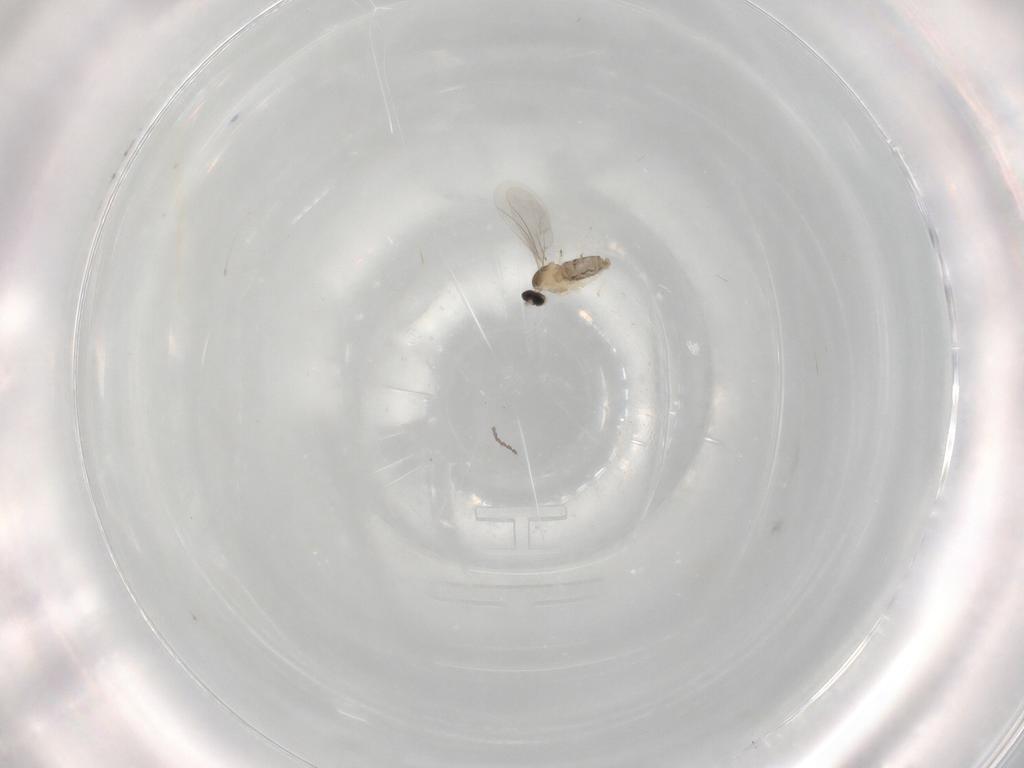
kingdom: Animalia
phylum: Arthropoda
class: Insecta
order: Diptera
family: Cecidomyiidae
